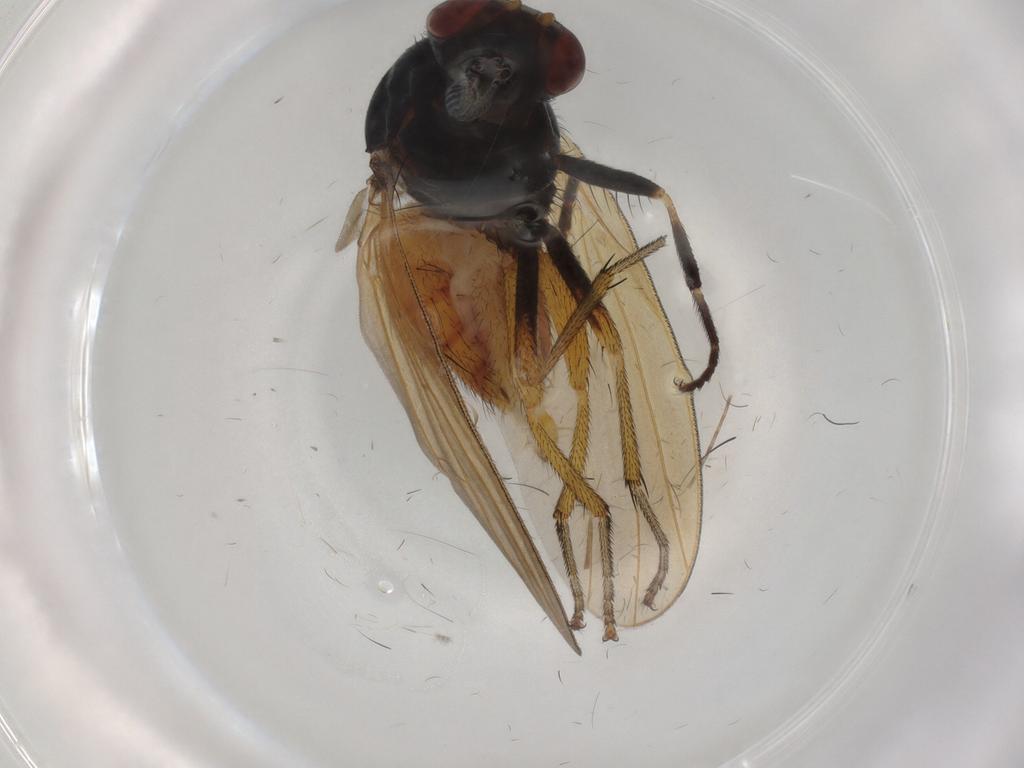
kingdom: Animalia
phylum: Arthropoda
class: Insecta
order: Diptera
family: Chironomidae
